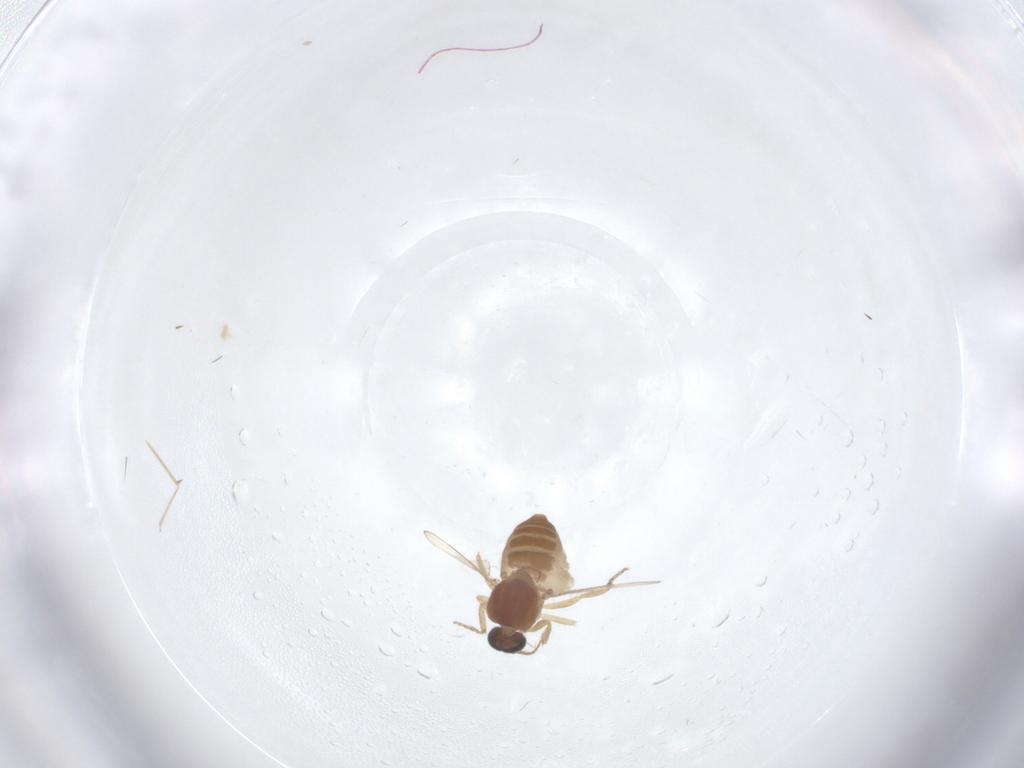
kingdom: Animalia
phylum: Arthropoda
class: Insecta
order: Diptera
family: Ceratopogonidae
